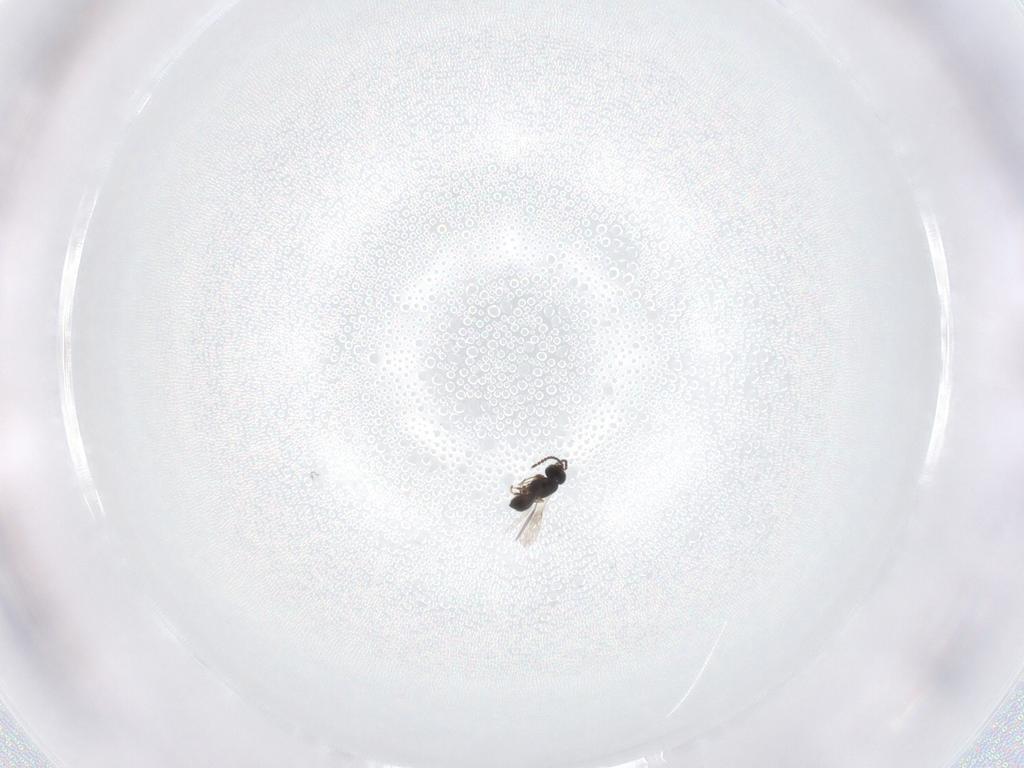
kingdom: Animalia
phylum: Arthropoda
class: Insecta
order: Hymenoptera
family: Scelionidae
